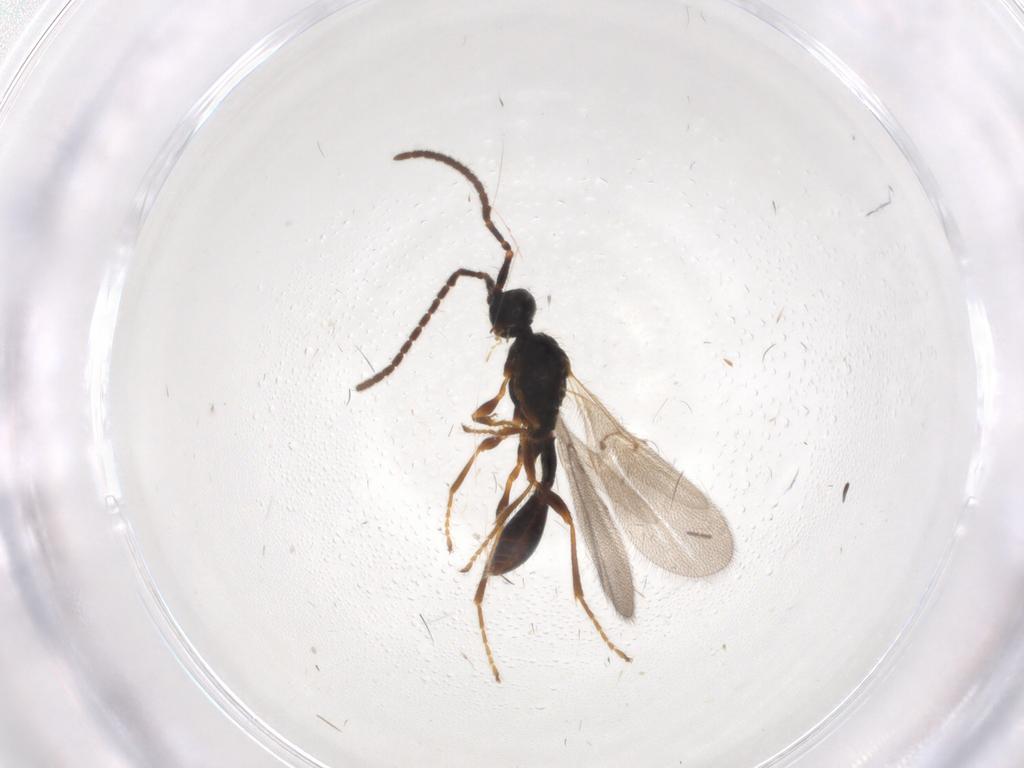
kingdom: Animalia
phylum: Arthropoda
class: Insecta
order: Hymenoptera
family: Diapriidae
